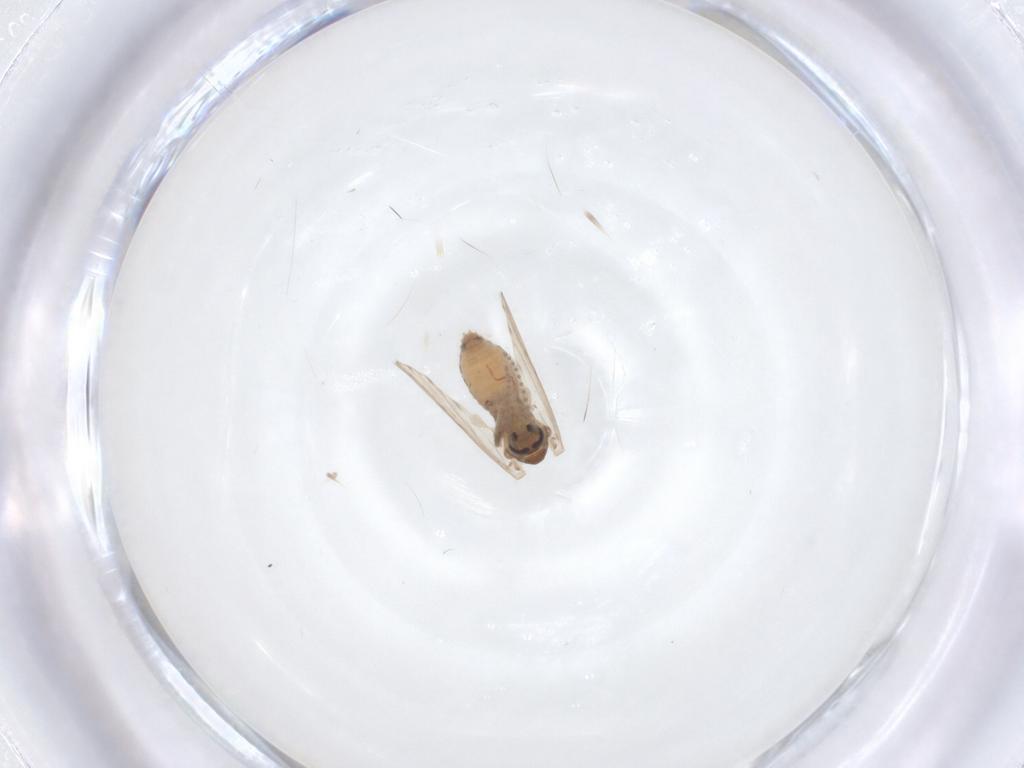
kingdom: Animalia
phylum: Arthropoda
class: Insecta
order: Diptera
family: Psychodidae
